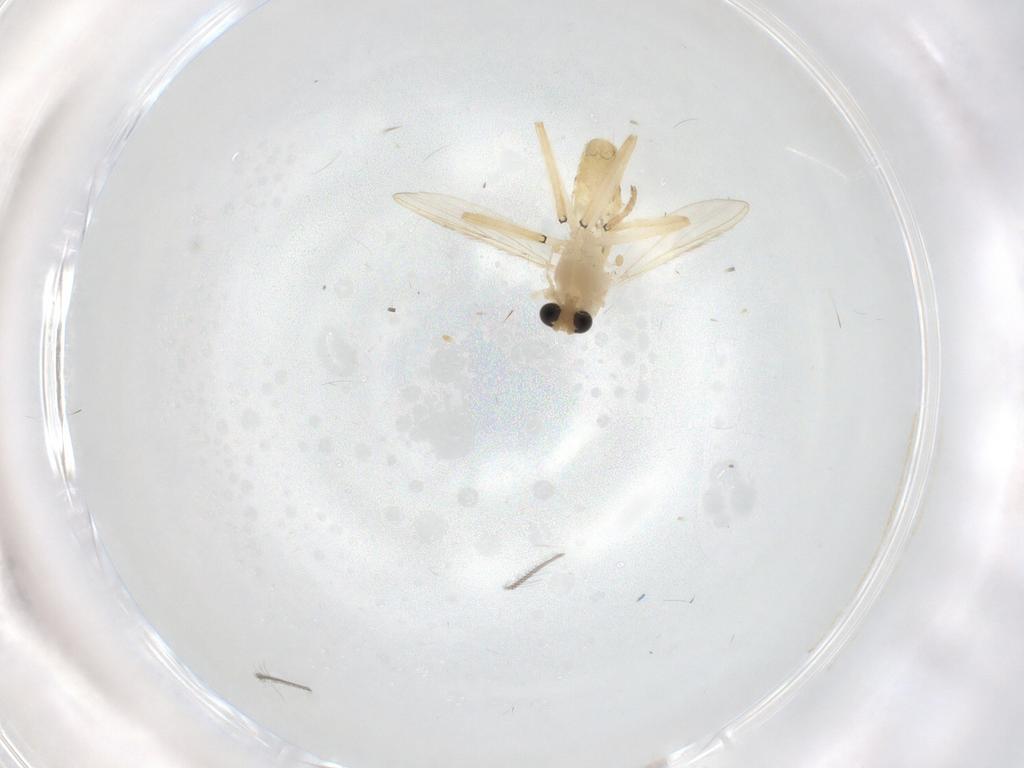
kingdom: Animalia
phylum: Arthropoda
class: Insecta
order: Diptera
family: Chironomidae
